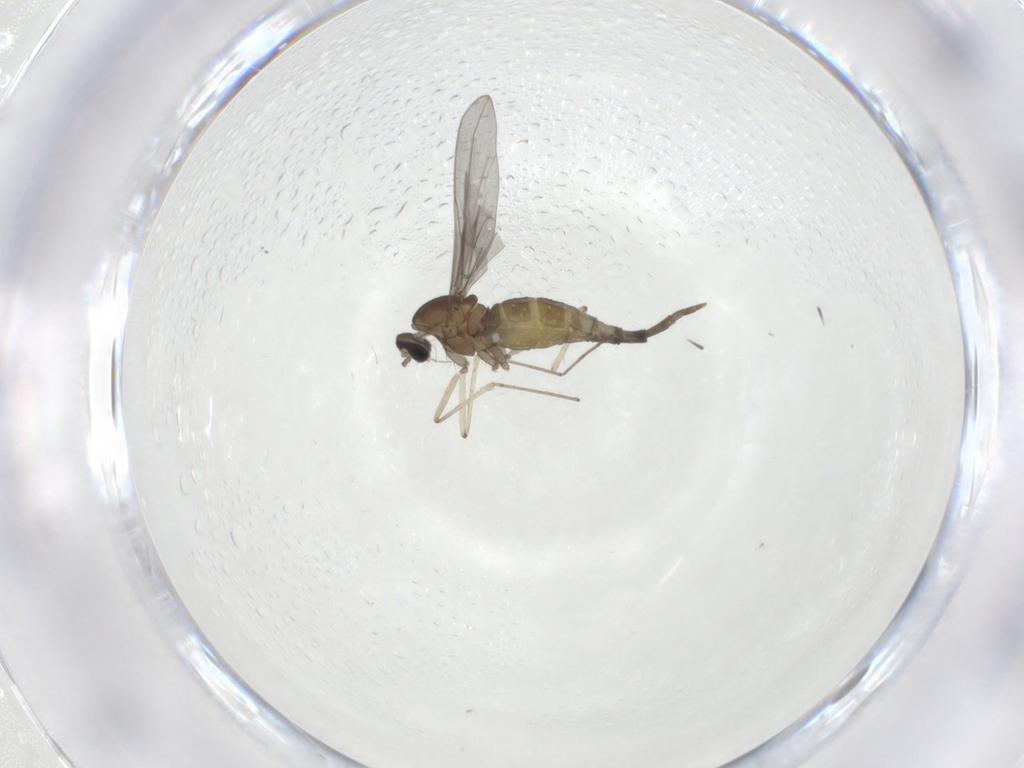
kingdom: Animalia
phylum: Arthropoda
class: Insecta
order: Diptera
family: Cecidomyiidae
